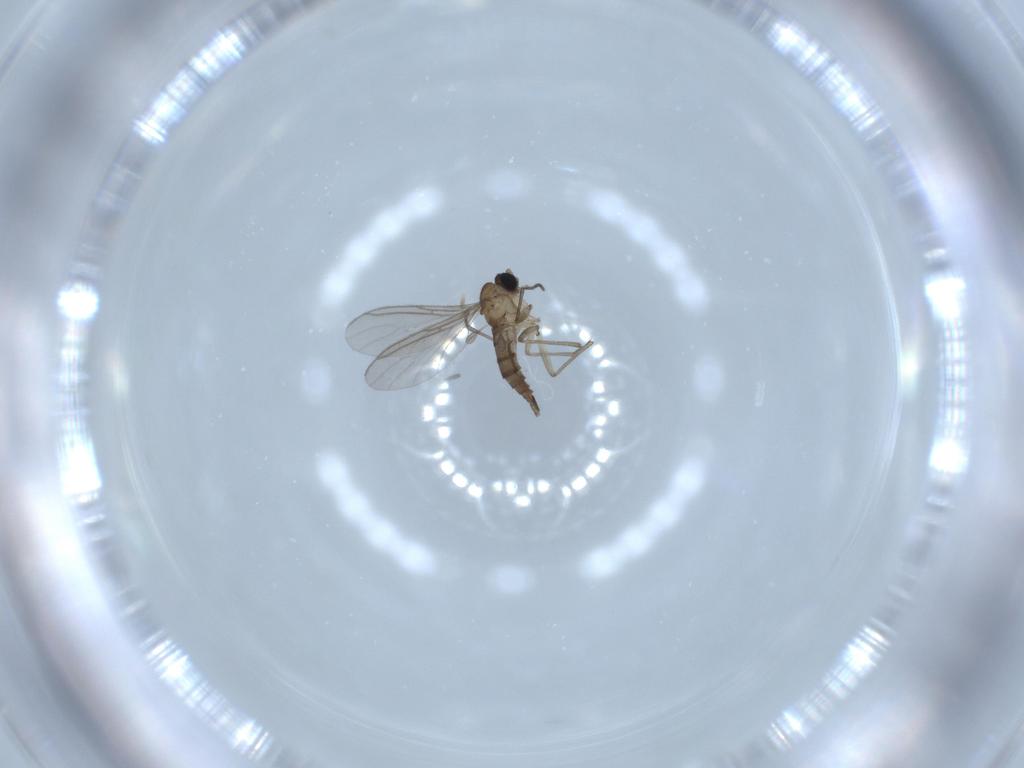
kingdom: Animalia
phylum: Arthropoda
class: Insecta
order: Diptera
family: Sciaridae
